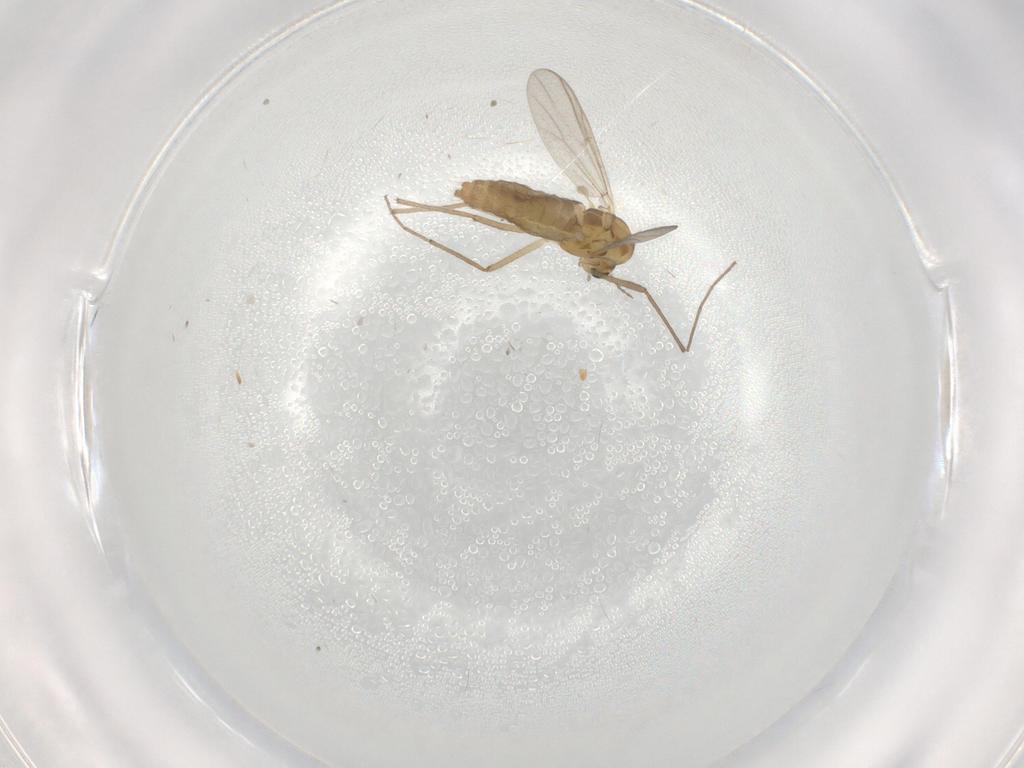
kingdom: Animalia
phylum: Arthropoda
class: Insecta
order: Diptera
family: Chironomidae
